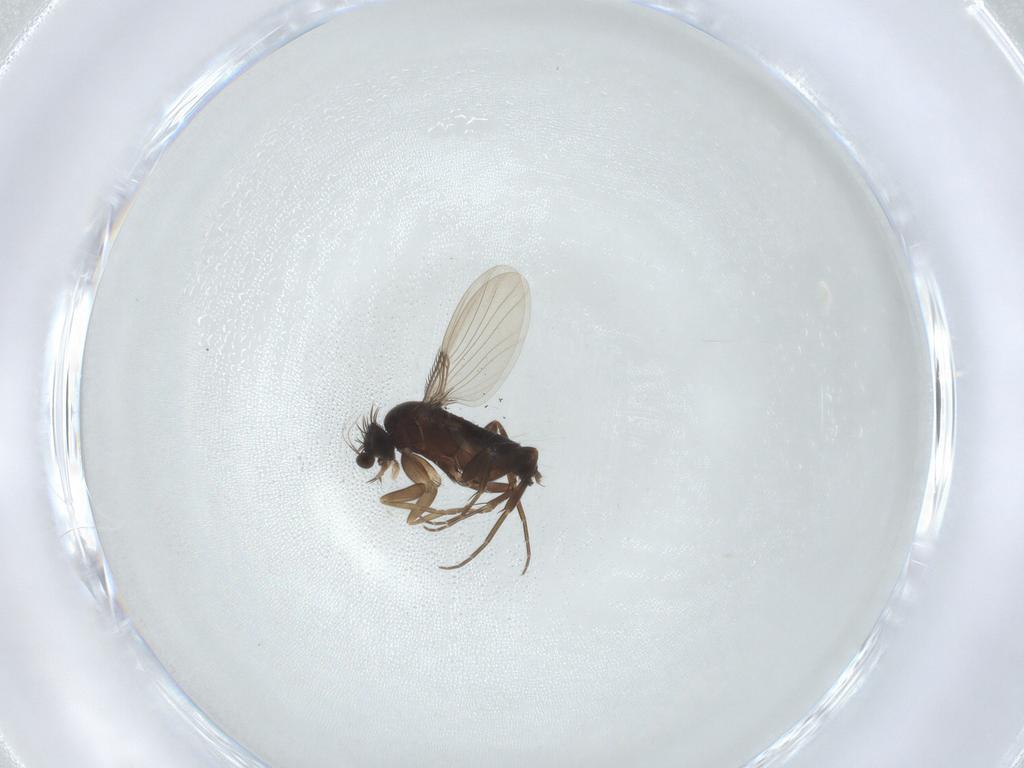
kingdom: Animalia
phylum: Arthropoda
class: Insecta
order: Diptera
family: Phoridae
